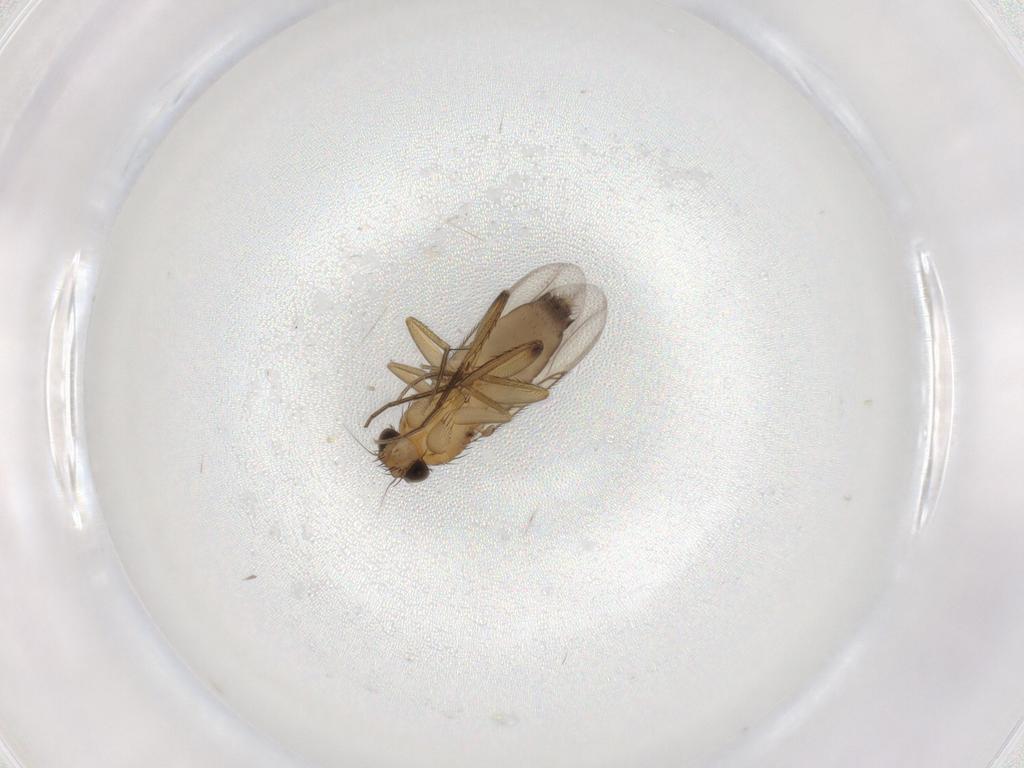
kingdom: Animalia
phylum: Arthropoda
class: Insecta
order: Diptera
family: Phoridae
